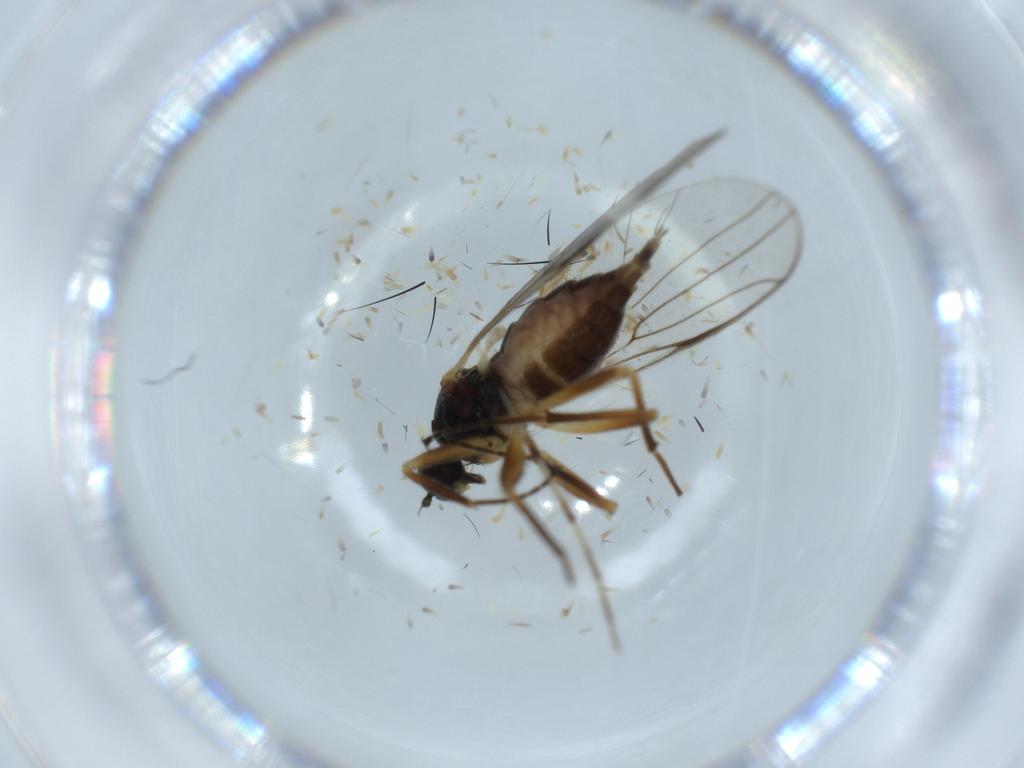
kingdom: Animalia
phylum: Arthropoda
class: Insecta
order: Diptera
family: Hybotidae
